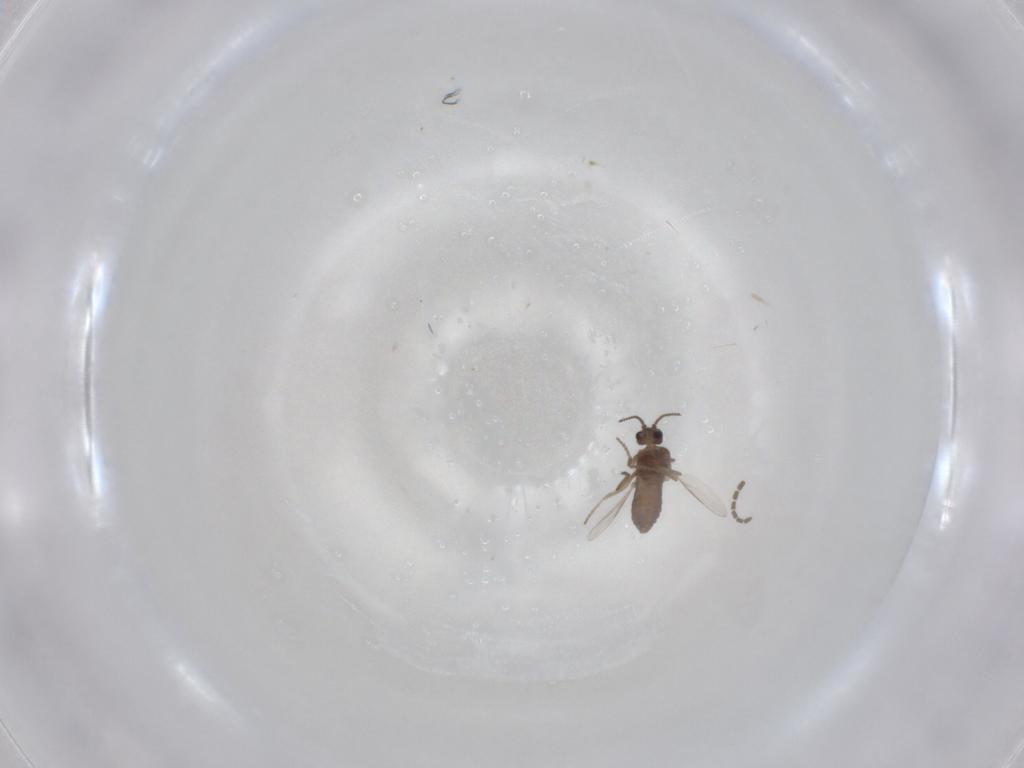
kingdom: Animalia
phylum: Arthropoda
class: Insecta
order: Diptera
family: Ceratopogonidae
